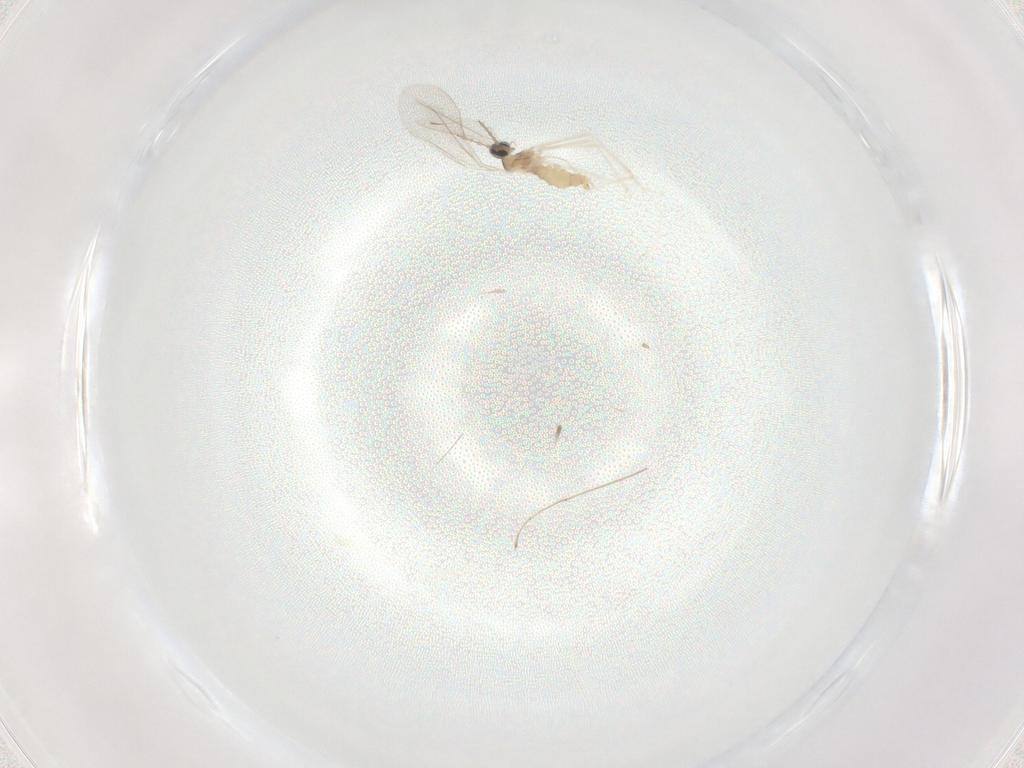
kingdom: Animalia
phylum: Arthropoda
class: Insecta
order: Diptera
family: Cecidomyiidae
